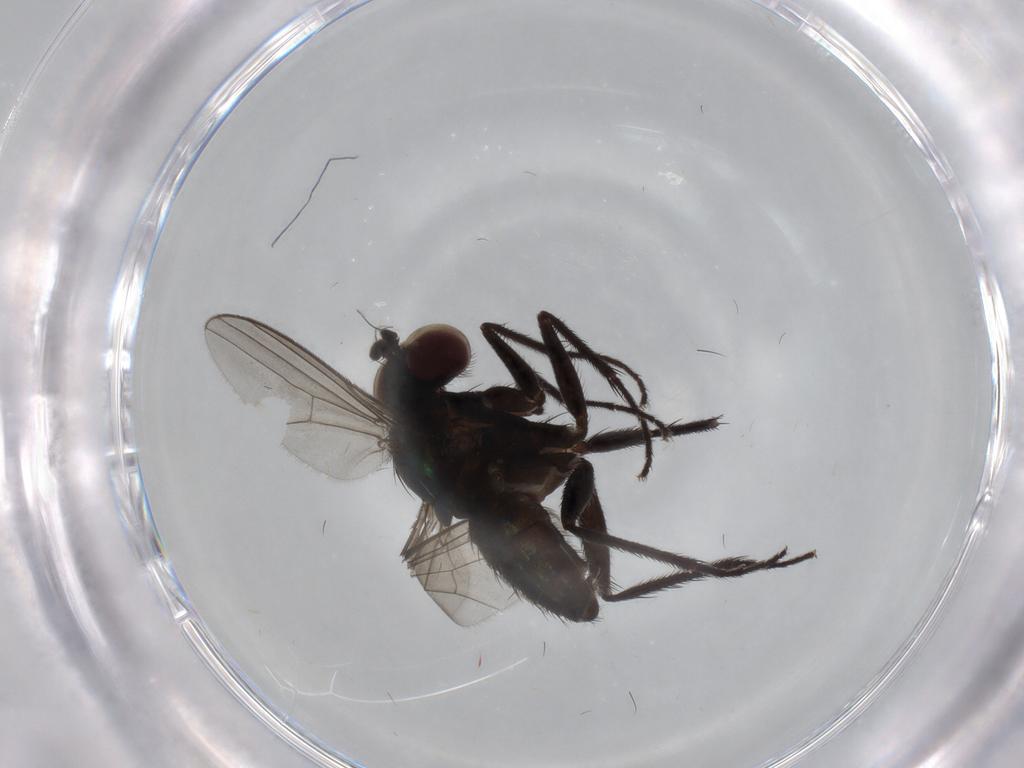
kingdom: Animalia
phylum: Arthropoda
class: Insecta
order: Diptera
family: Dolichopodidae
